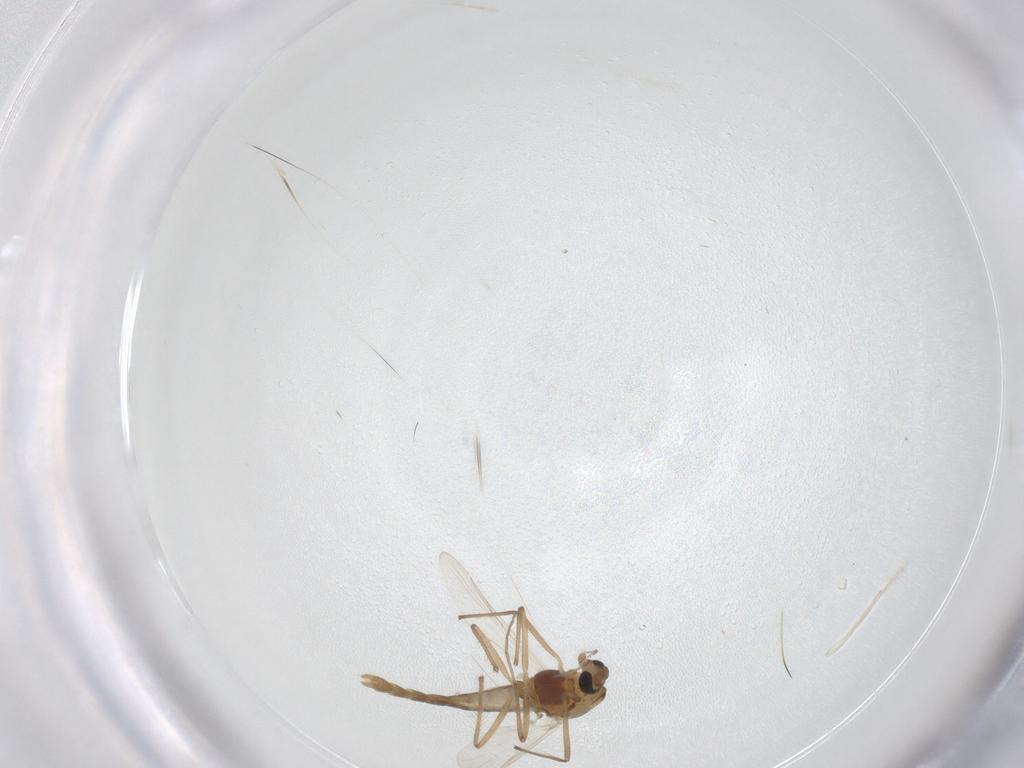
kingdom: Animalia
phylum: Arthropoda
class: Insecta
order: Diptera
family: Chironomidae
